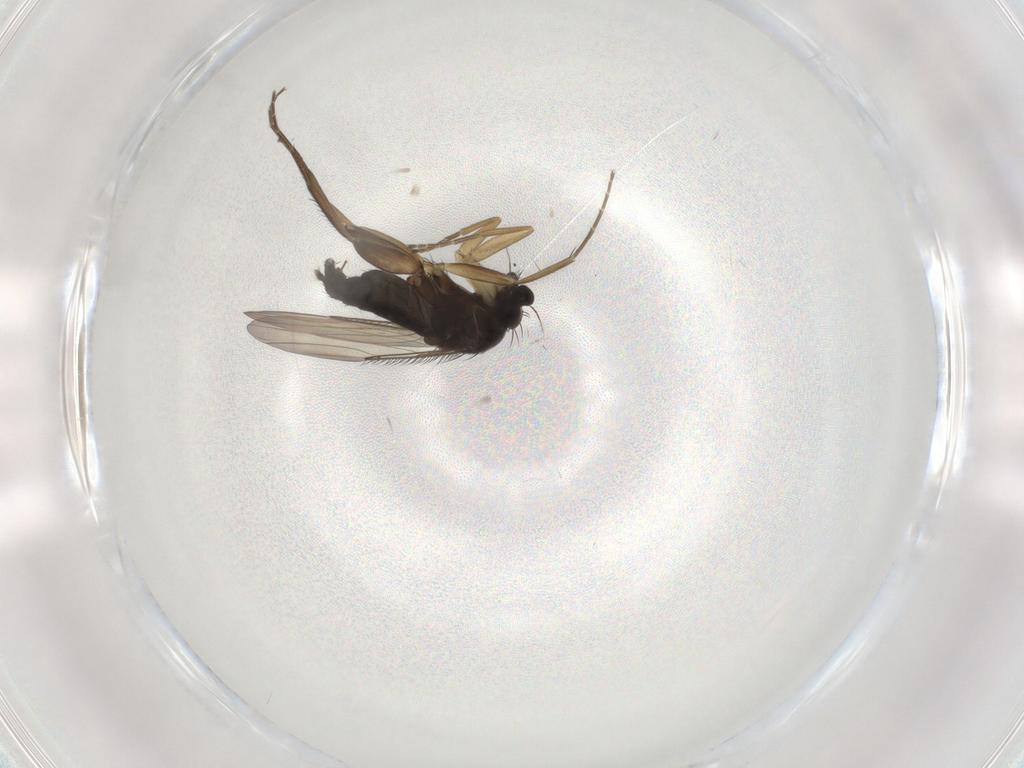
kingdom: Animalia
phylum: Arthropoda
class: Insecta
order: Diptera
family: Phoridae
